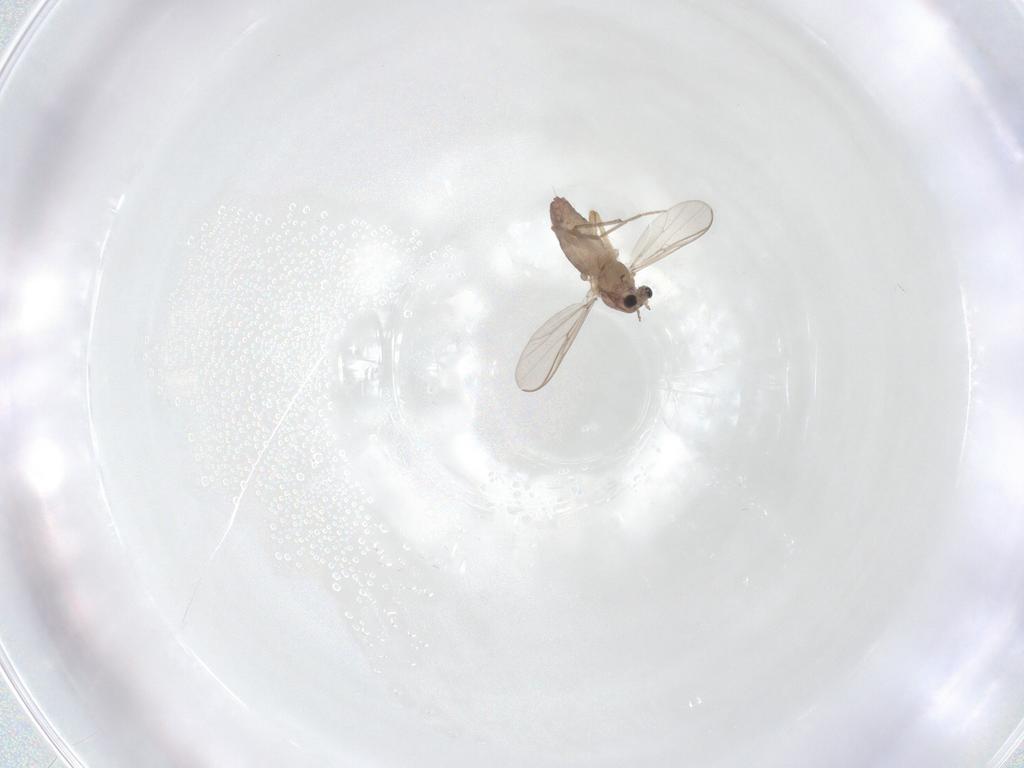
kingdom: Animalia
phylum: Arthropoda
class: Insecta
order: Diptera
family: Chironomidae
